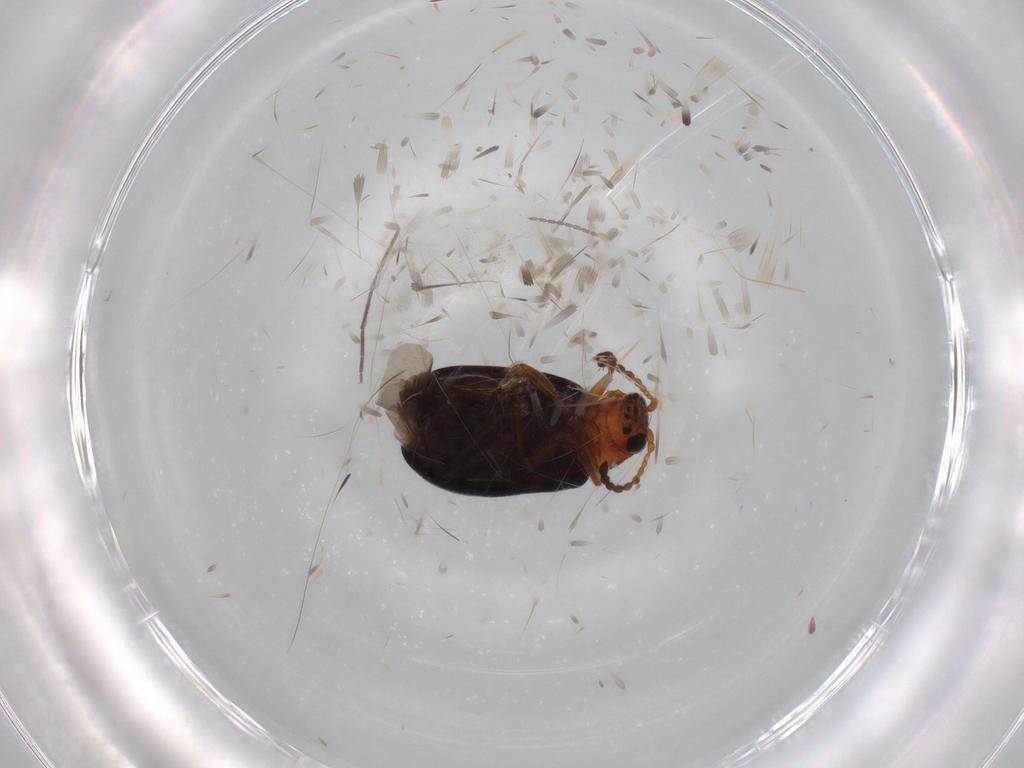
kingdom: Animalia
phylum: Arthropoda
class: Insecta
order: Coleoptera
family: Chrysomelidae
